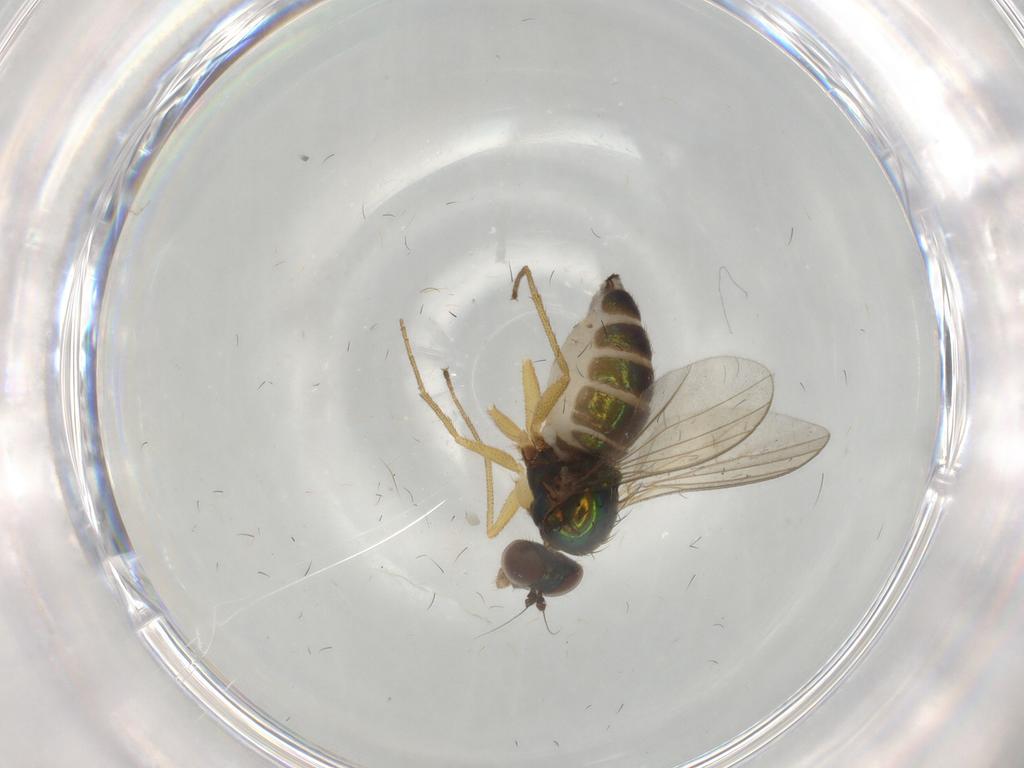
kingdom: Animalia
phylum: Arthropoda
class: Insecta
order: Diptera
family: Dolichopodidae
